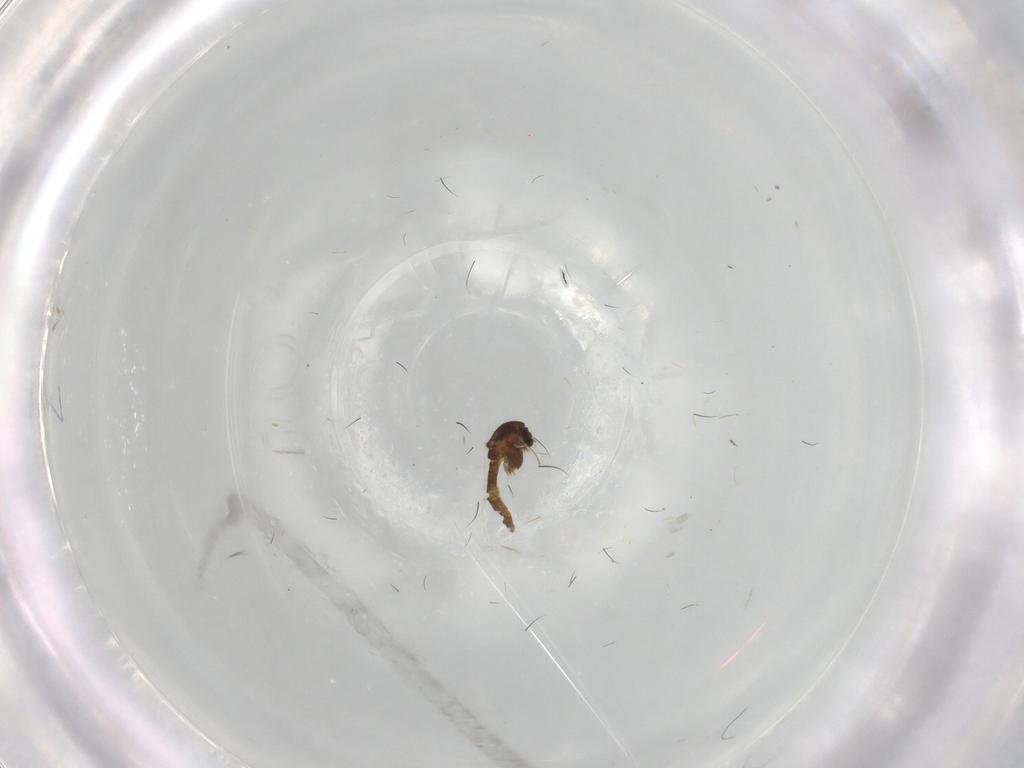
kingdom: Animalia
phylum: Arthropoda
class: Insecta
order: Diptera
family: Chironomidae
